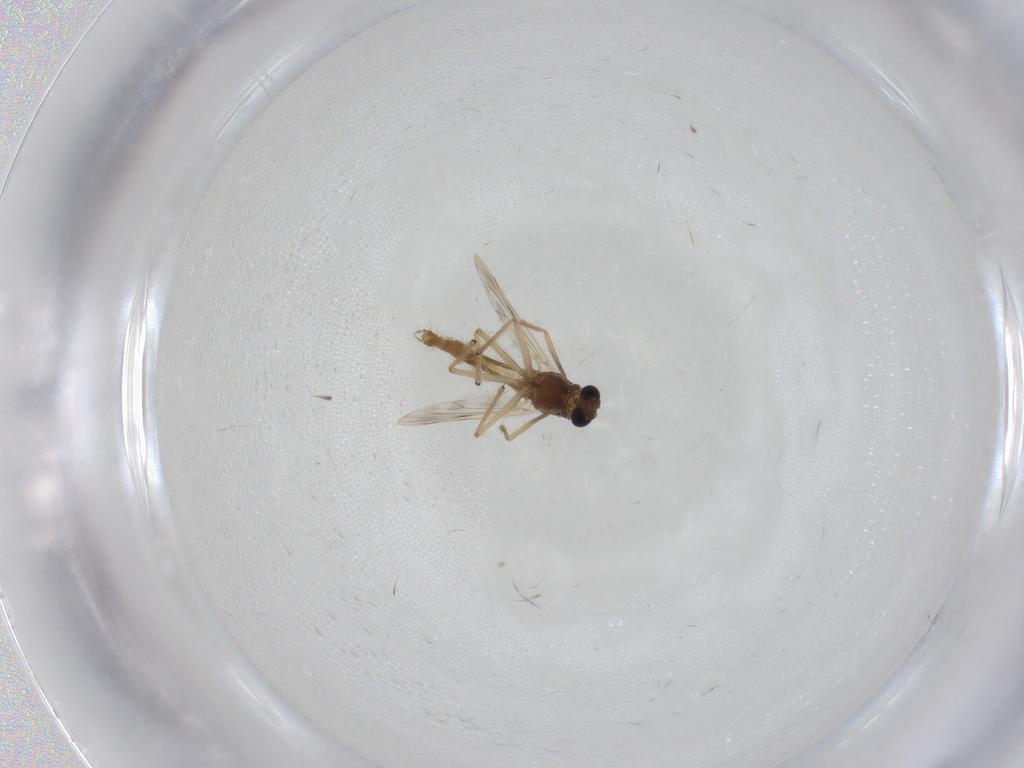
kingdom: Animalia
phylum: Arthropoda
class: Insecta
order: Diptera
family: Chironomidae
